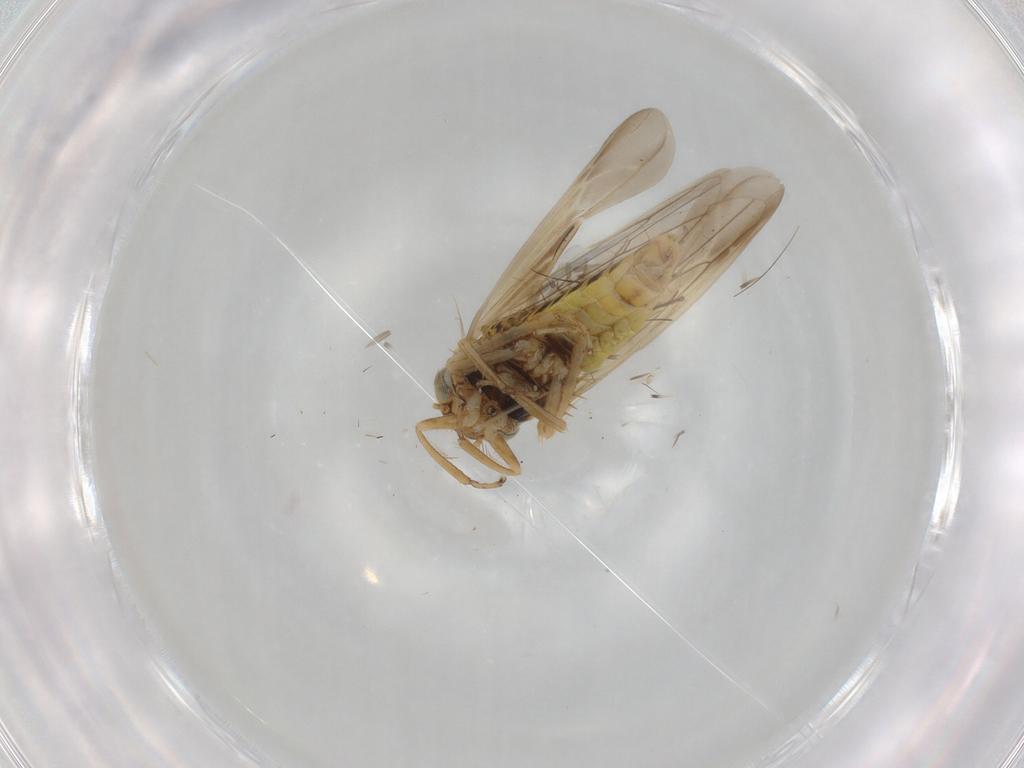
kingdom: Animalia
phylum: Arthropoda
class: Insecta
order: Hemiptera
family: Cicadellidae
